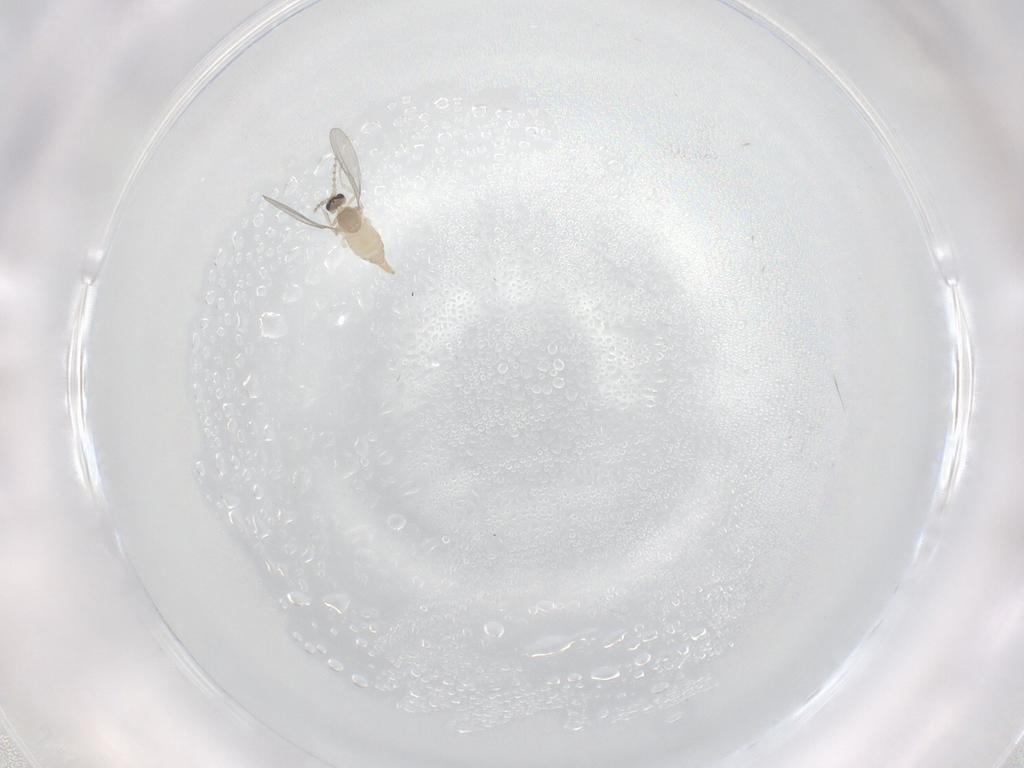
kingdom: Animalia
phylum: Arthropoda
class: Insecta
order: Diptera
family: Cecidomyiidae
